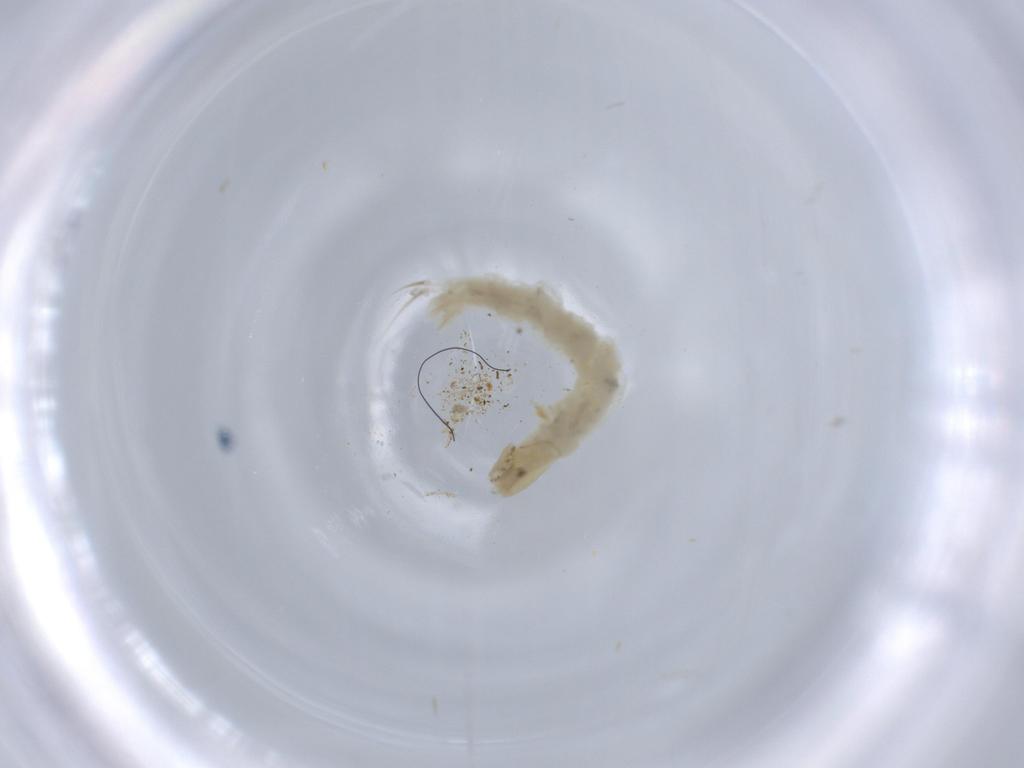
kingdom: Animalia
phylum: Arthropoda
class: Insecta
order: Diptera
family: Chironomidae
